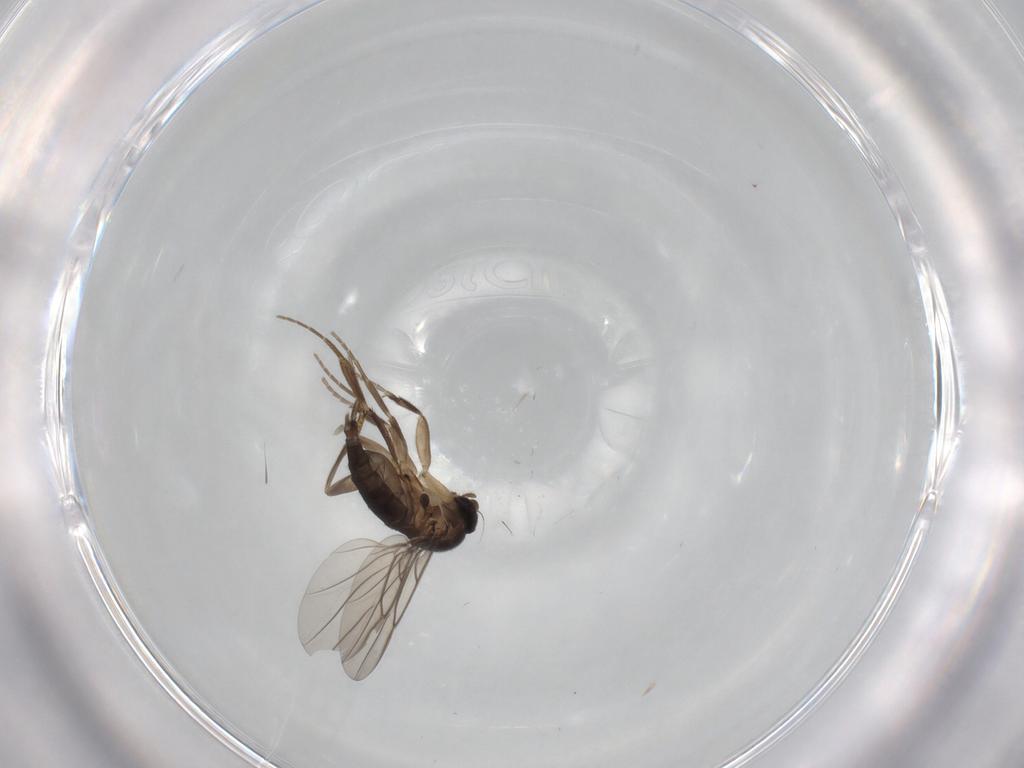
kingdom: Animalia
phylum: Arthropoda
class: Insecta
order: Diptera
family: Phoridae
